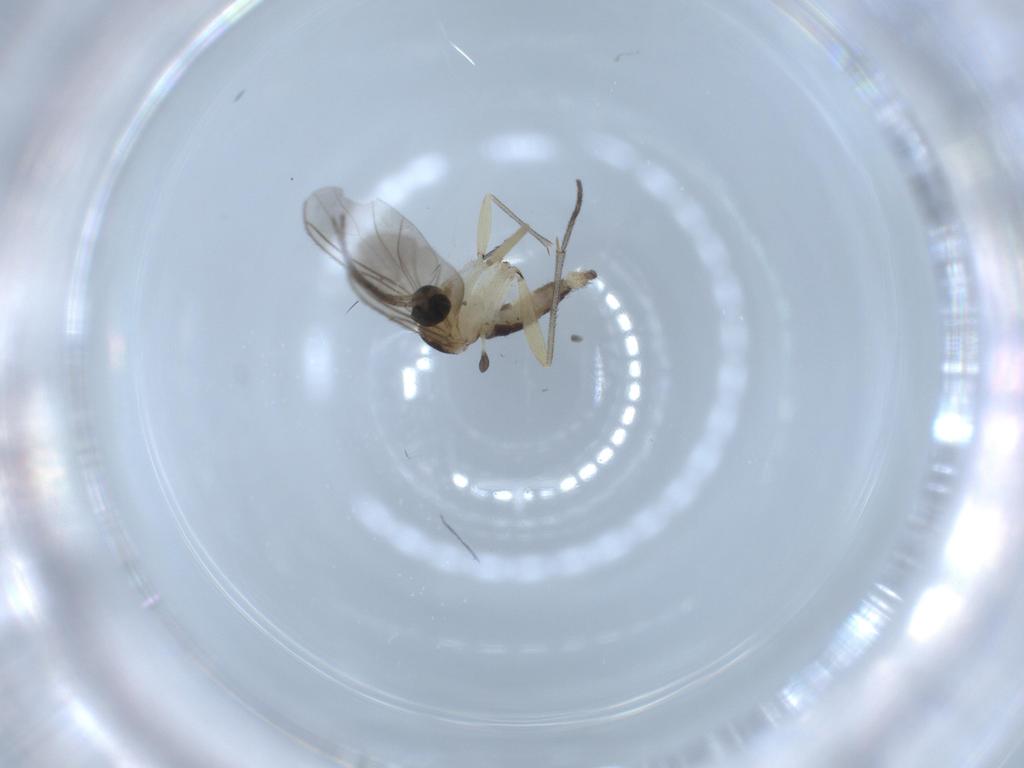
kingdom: Animalia
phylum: Arthropoda
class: Insecta
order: Diptera
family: Sciaridae
